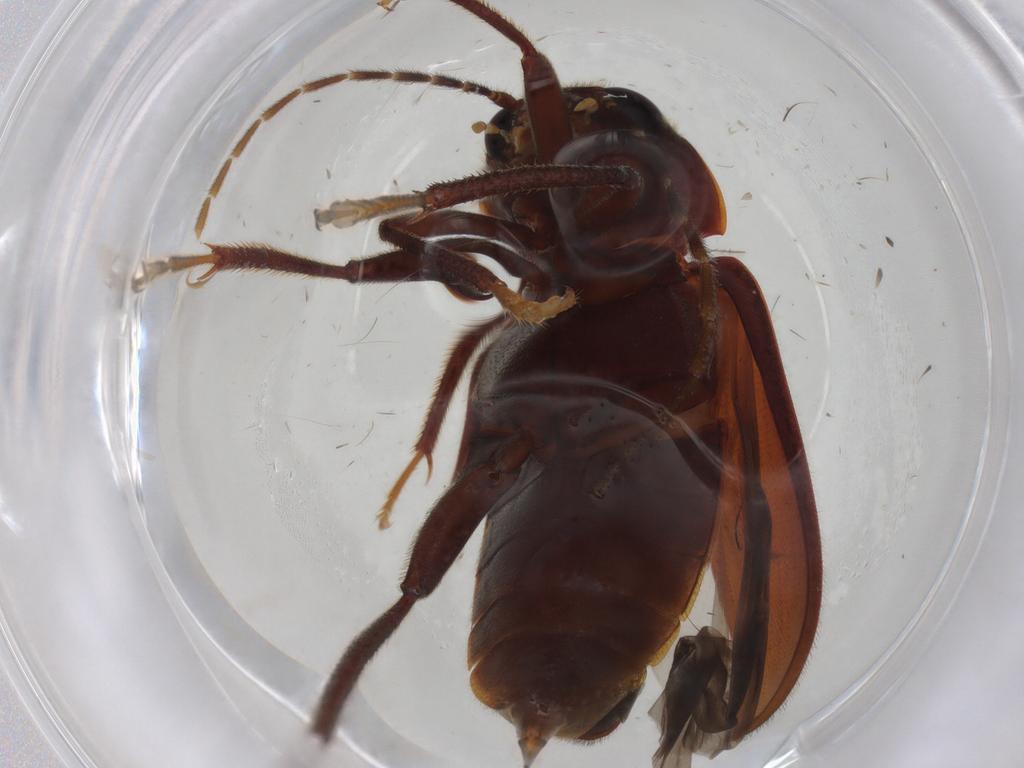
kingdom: Animalia
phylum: Arthropoda
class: Insecta
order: Coleoptera
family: Ptilodactylidae
